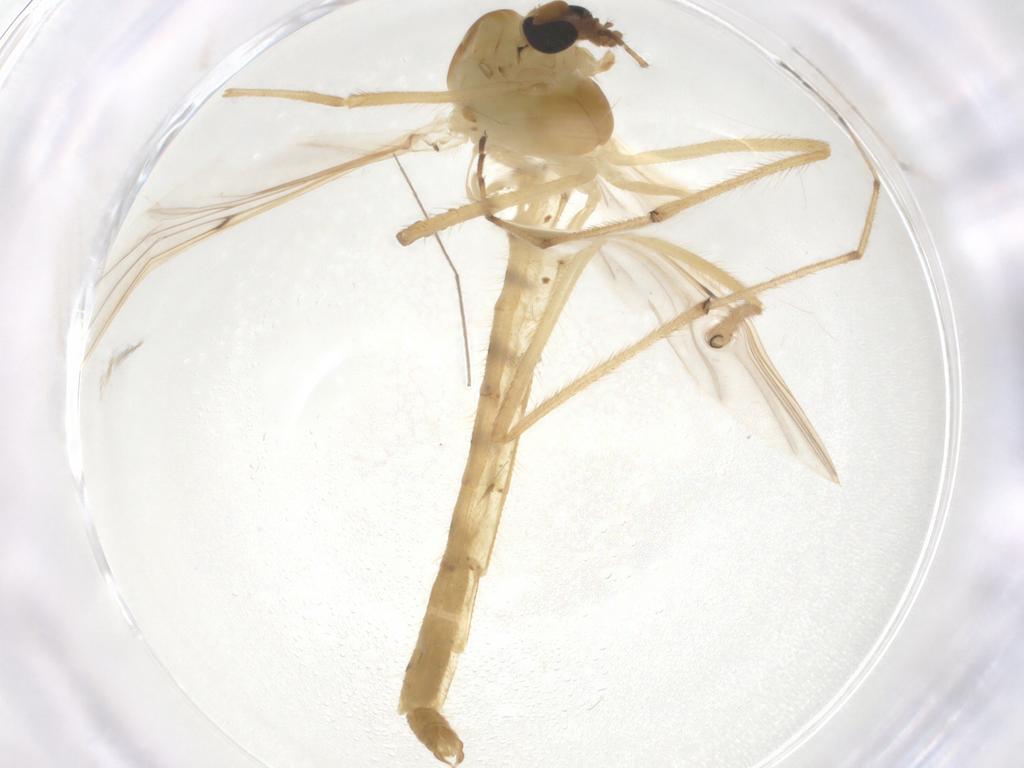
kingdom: Animalia
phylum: Arthropoda
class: Insecta
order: Diptera
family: Chironomidae
